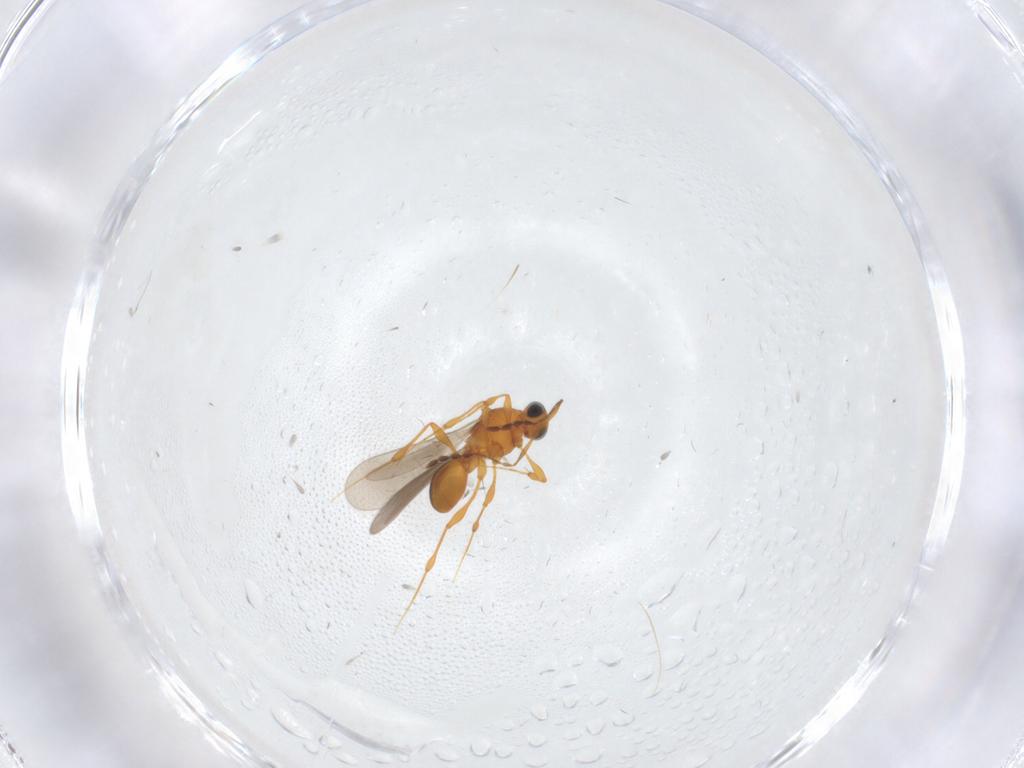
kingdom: Animalia
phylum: Arthropoda
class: Insecta
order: Hymenoptera
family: Platygastridae
